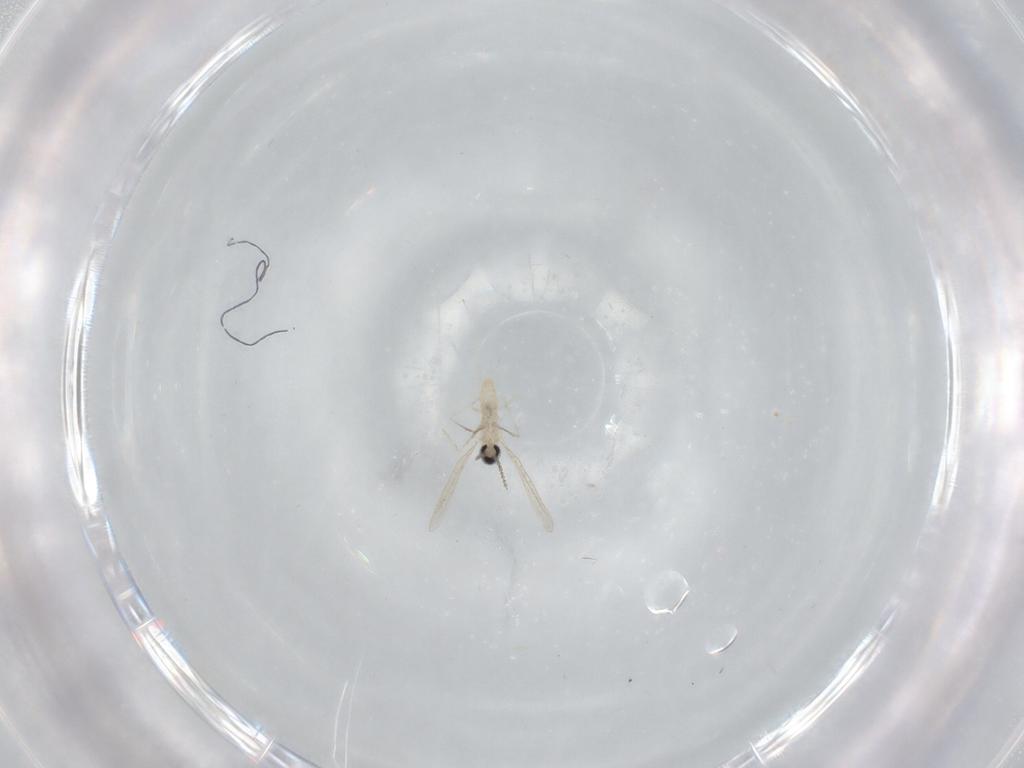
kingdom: Animalia
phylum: Arthropoda
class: Insecta
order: Diptera
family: Cecidomyiidae
